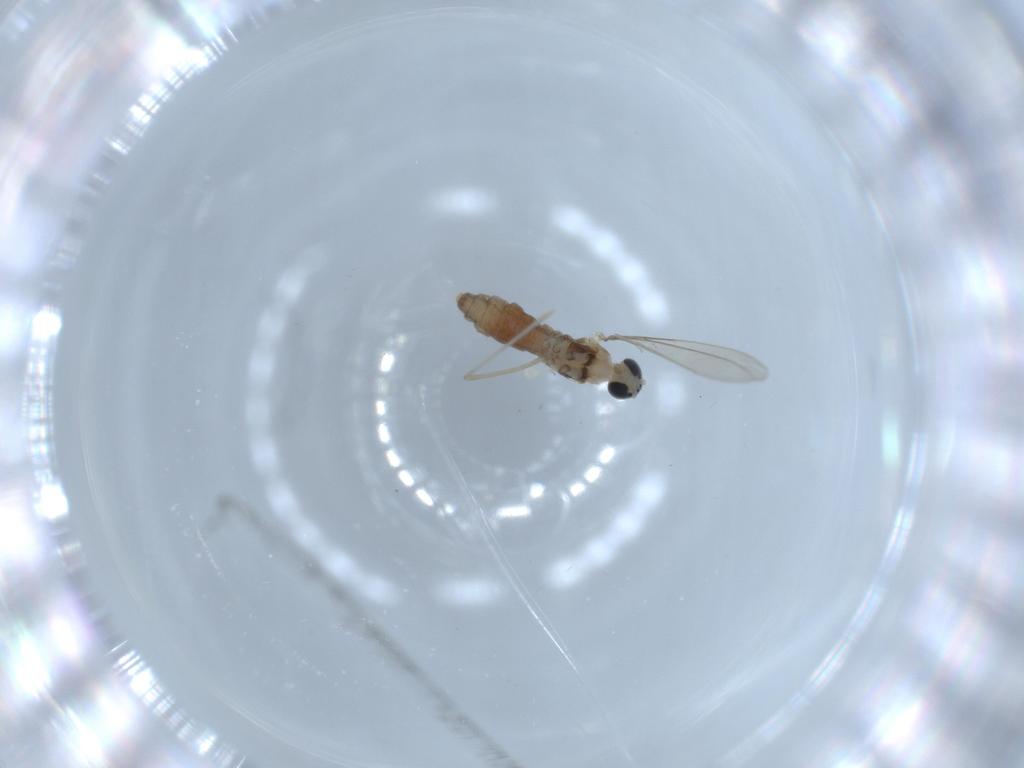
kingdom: Animalia
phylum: Arthropoda
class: Insecta
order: Diptera
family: Cecidomyiidae
